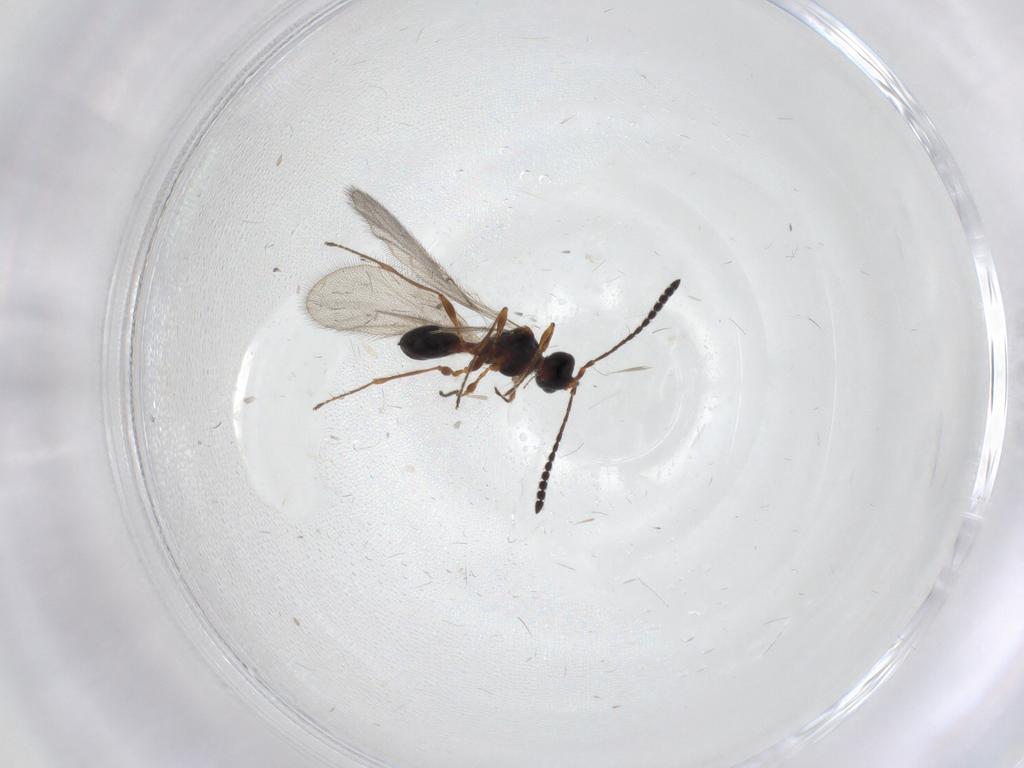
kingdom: Animalia
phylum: Arthropoda
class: Insecta
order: Hymenoptera
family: Diapriidae
